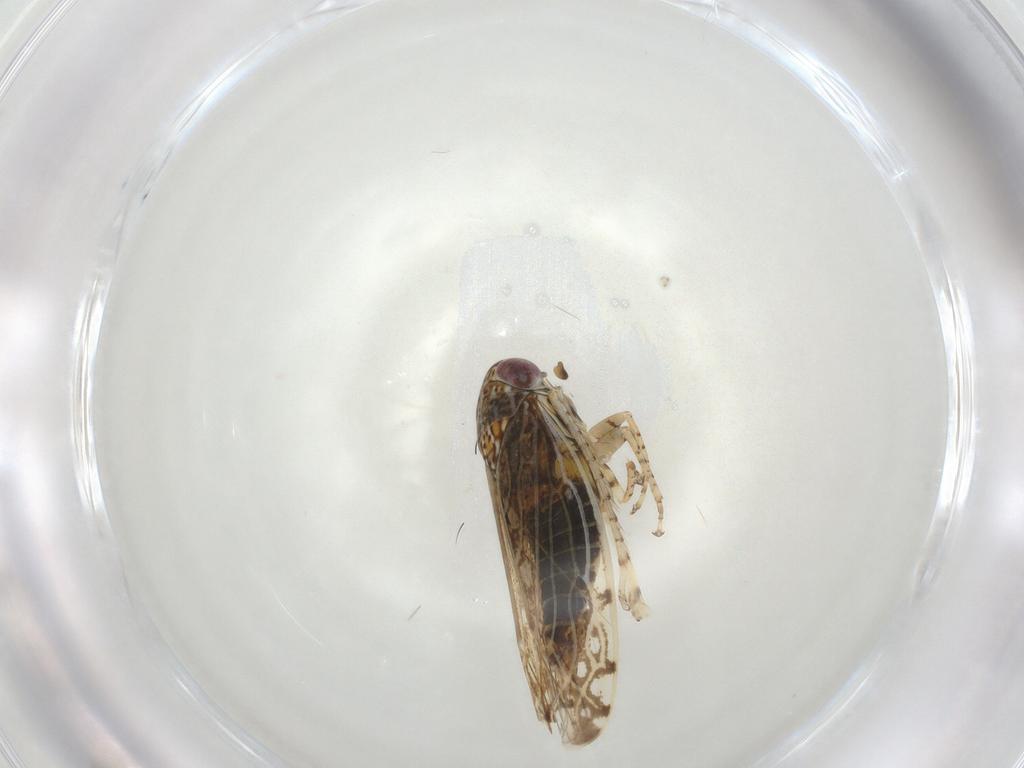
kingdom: Animalia
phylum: Arthropoda
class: Insecta
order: Hemiptera
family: Cicadellidae
